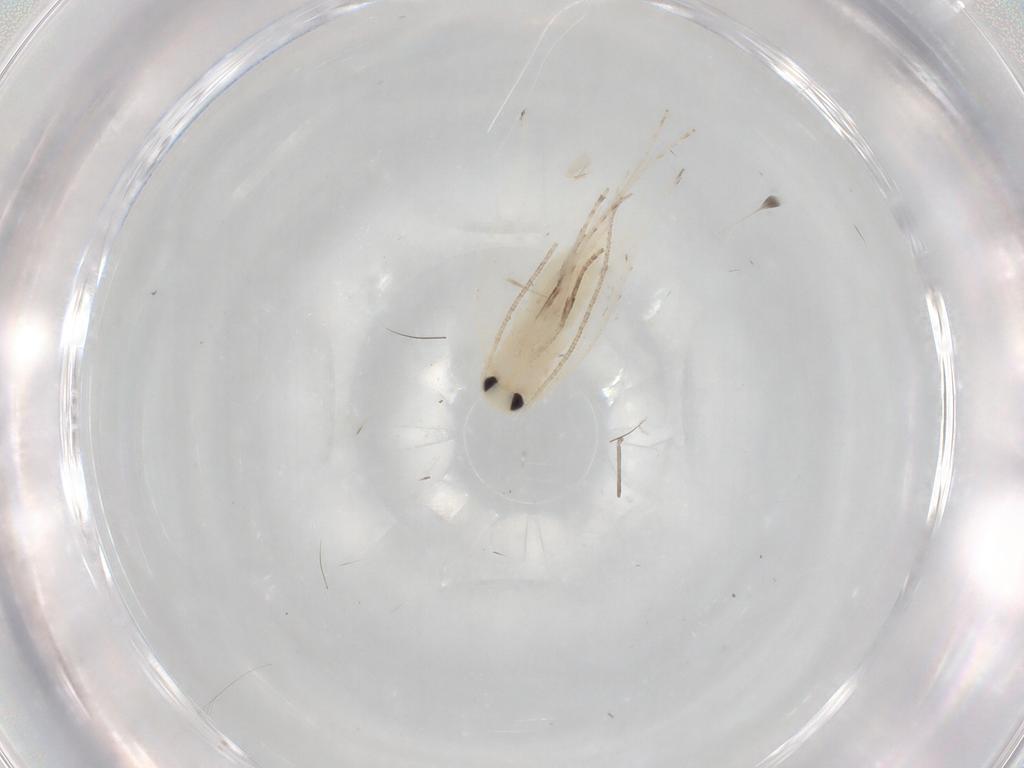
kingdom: Animalia
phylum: Arthropoda
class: Insecta
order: Lepidoptera
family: Lyonetiidae
